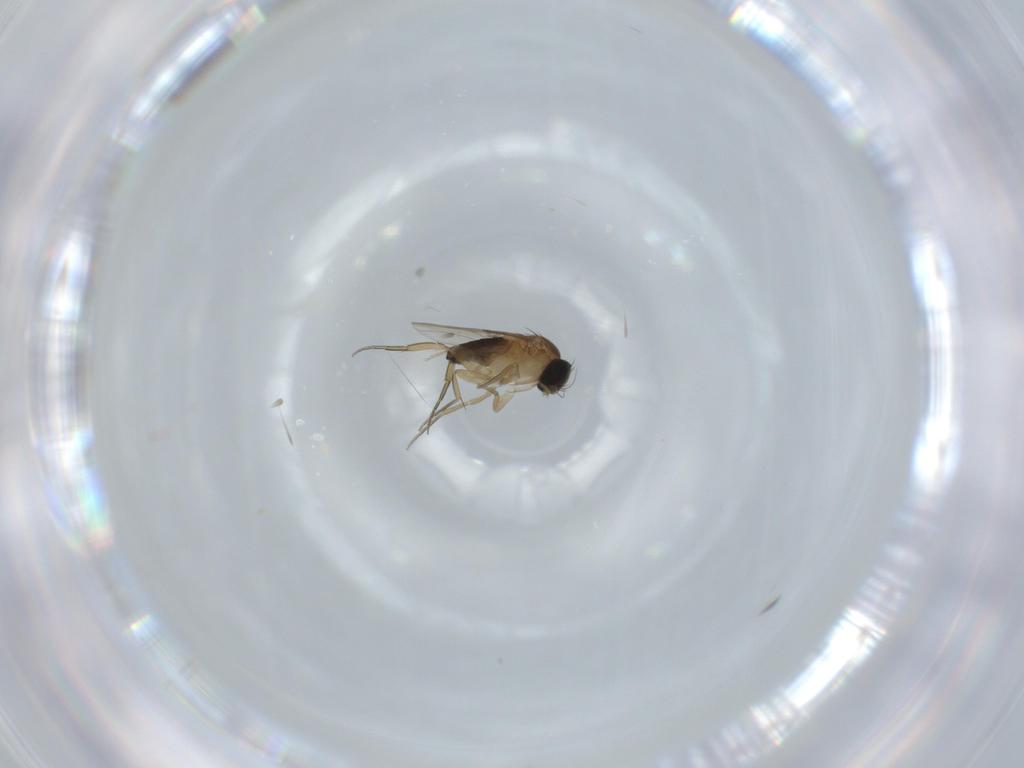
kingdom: Animalia
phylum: Arthropoda
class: Insecta
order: Diptera
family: Phoridae
